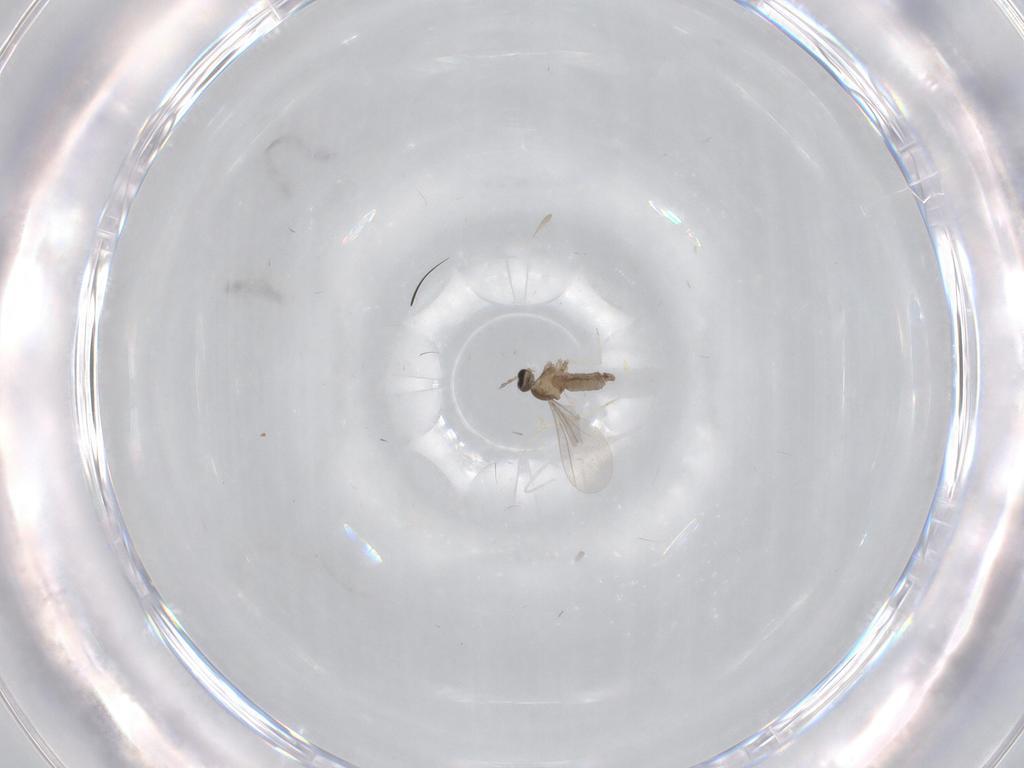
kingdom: Animalia
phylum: Arthropoda
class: Insecta
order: Diptera
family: Cecidomyiidae
